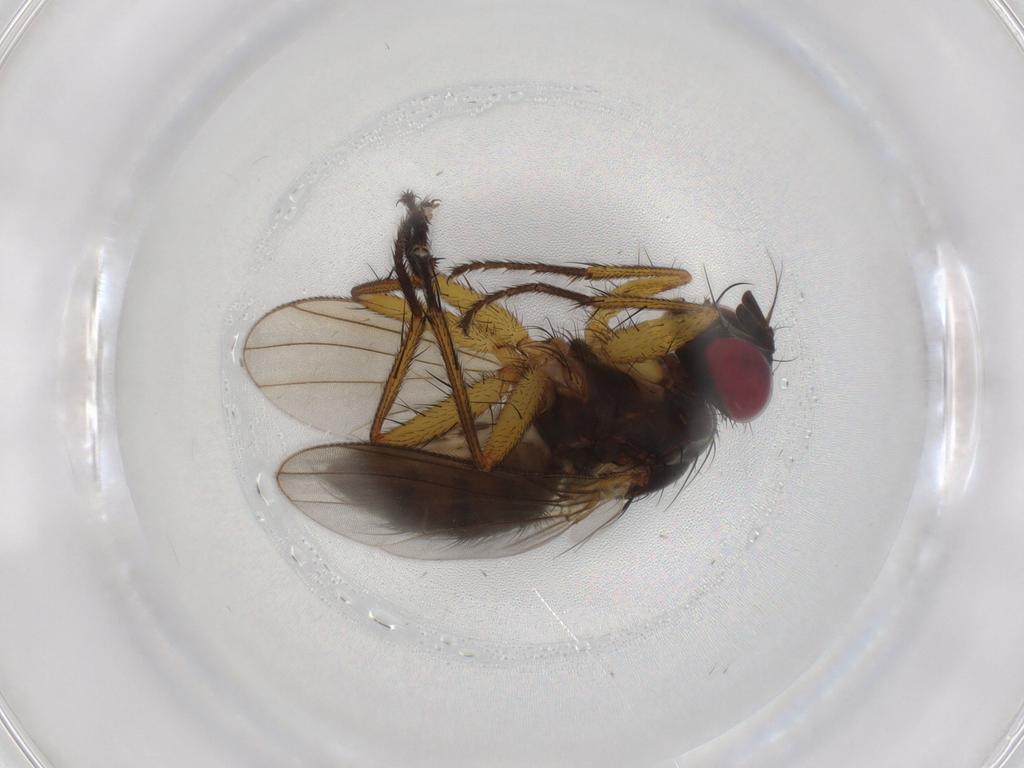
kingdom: Animalia
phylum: Arthropoda
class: Insecta
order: Diptera
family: Muscidae
